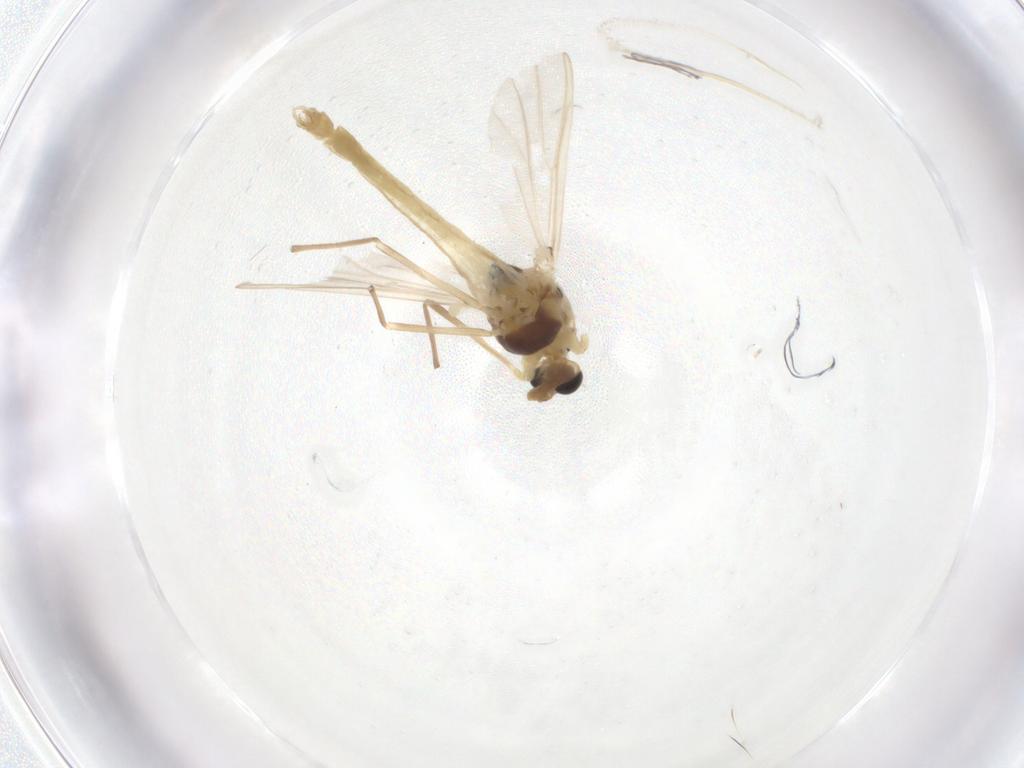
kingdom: Animalia
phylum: Arthropoda
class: Insecta
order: Diptera
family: Chironomidae
